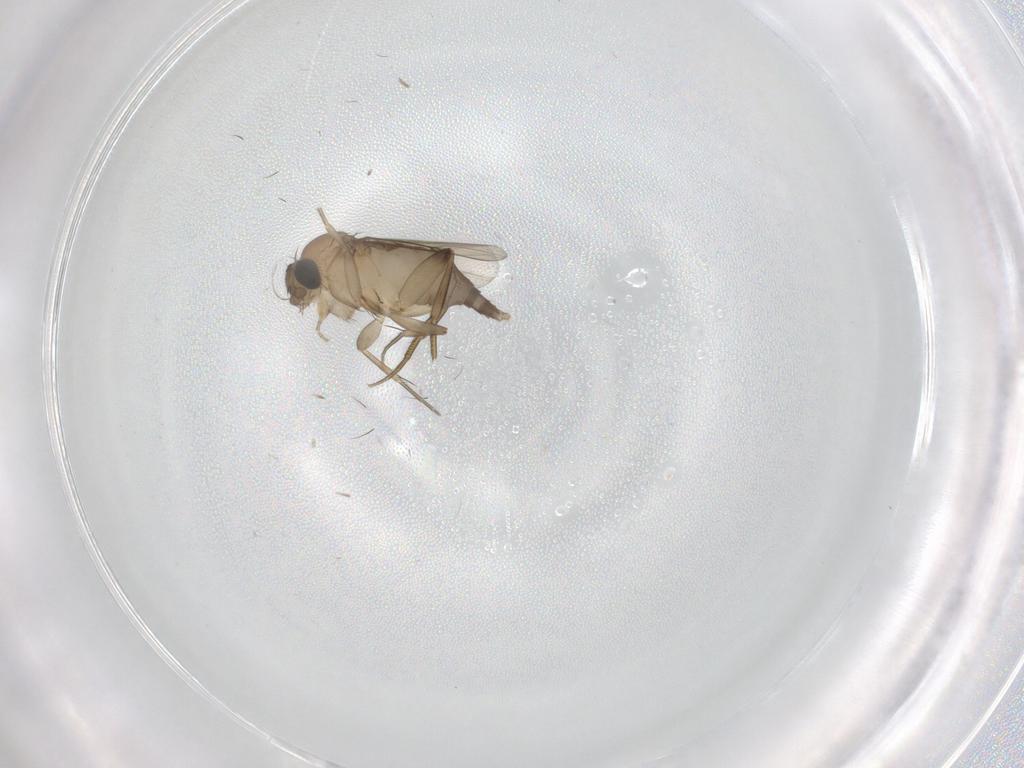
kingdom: Animalia
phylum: Arthropoda
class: Insecta
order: Diptera
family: Phoridae
